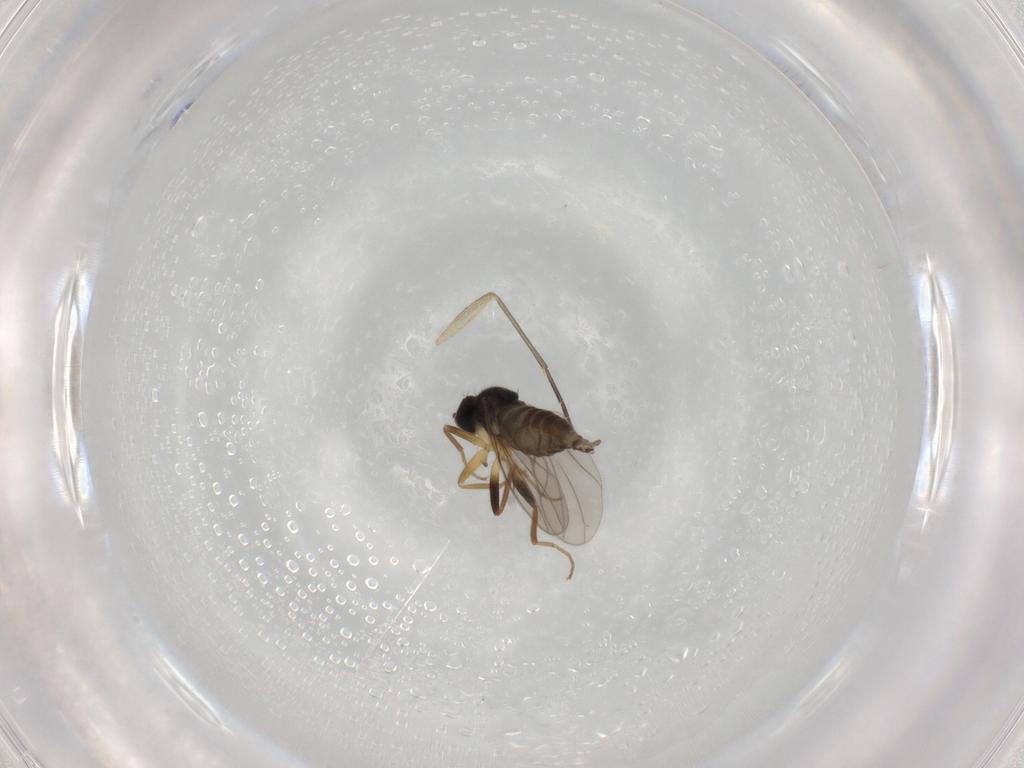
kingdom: Animalia
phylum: Arthropoda
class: Insecta
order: Diptera
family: Hybotidae
